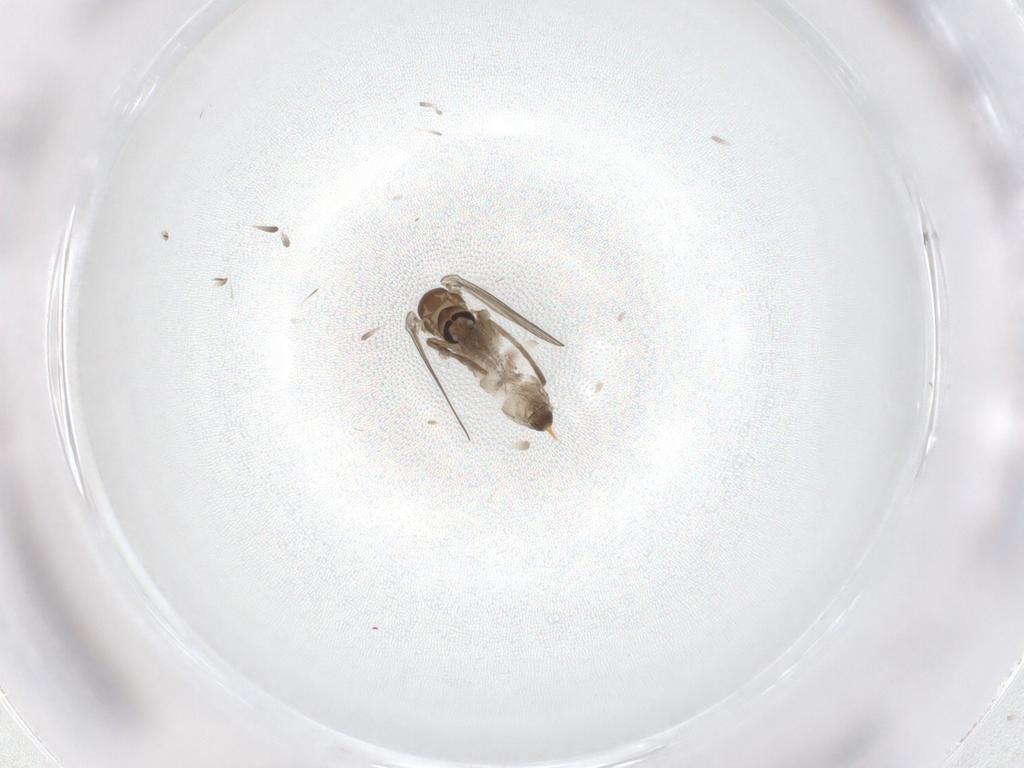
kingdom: Animalia
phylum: Arthropoda
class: Insecta
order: Diptera
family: Psychodidae
